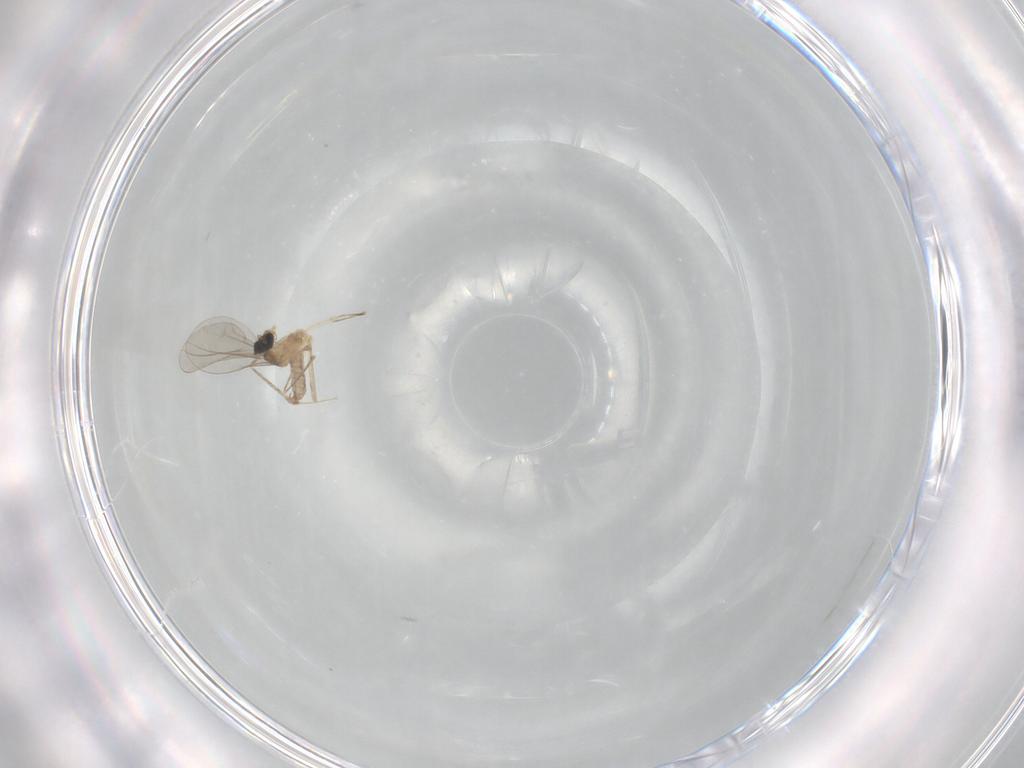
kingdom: Animalia
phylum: Arthropoda
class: Insecta
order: Diptera
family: Cecidomyiidae
